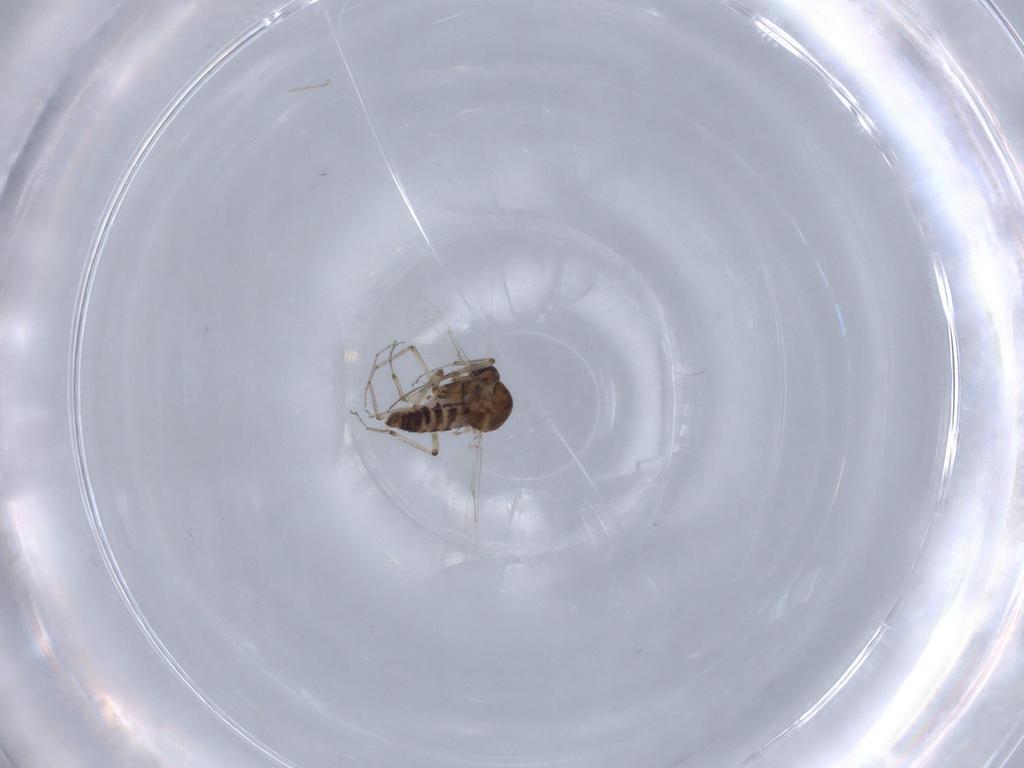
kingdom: Animalia
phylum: Arthropoda
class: Insecta
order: Diptera
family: Ceratopogonidae
